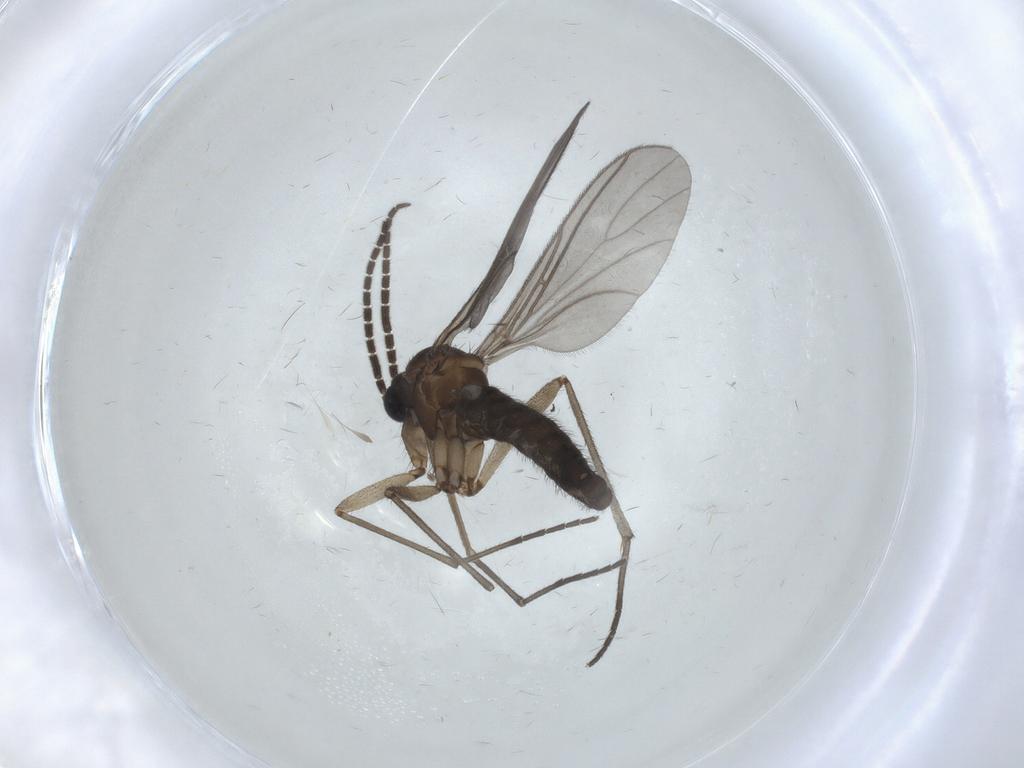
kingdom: Animalia
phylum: Arthropoda
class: Insecta
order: Diptera
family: Sciaridae
